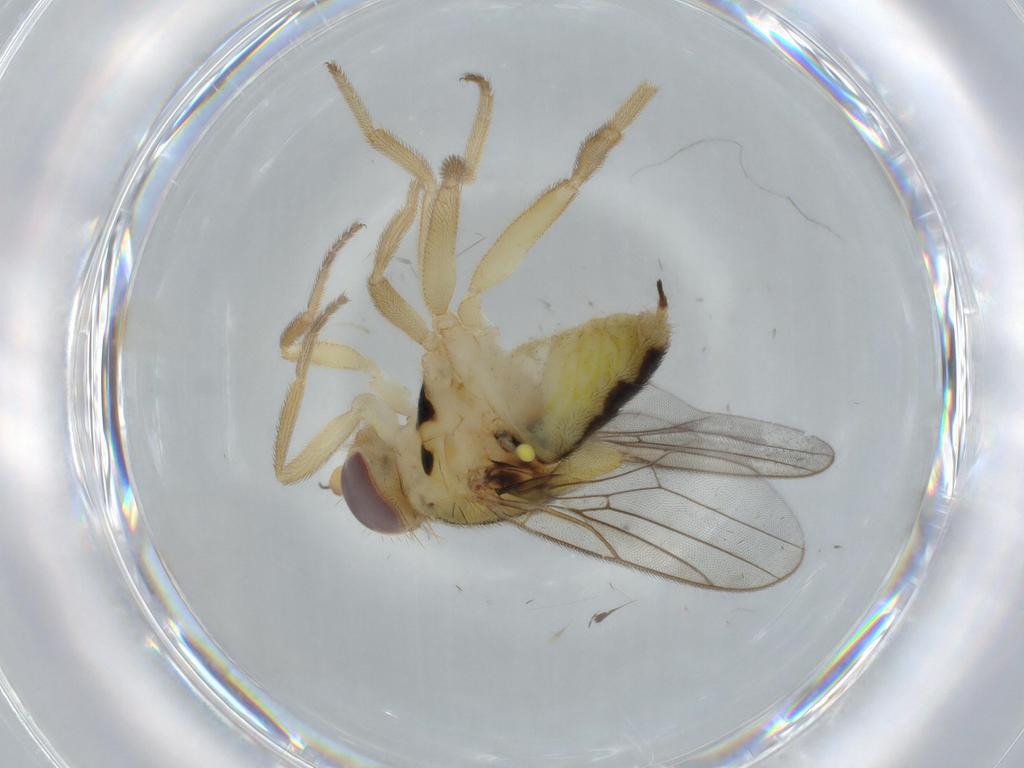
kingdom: Animalia
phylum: Arthropoda
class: Insecta
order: Diptera
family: Chloropidae
